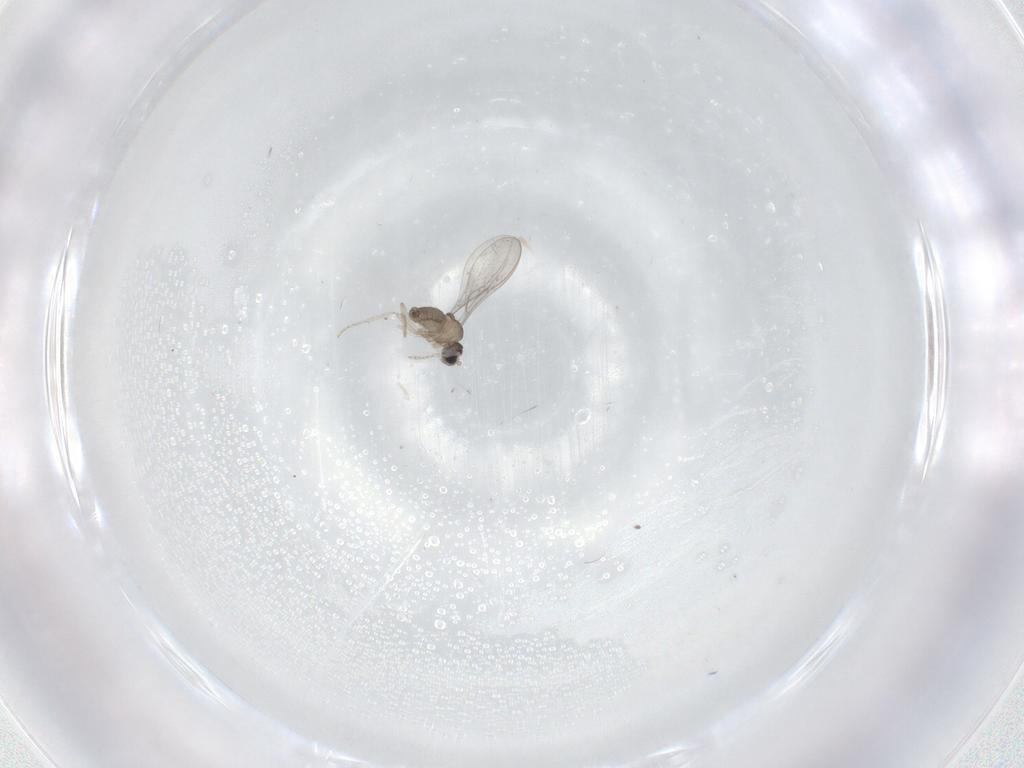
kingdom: Animalia
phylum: Arthropoda
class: Insecta
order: Diptera
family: Cecidomyiidae
